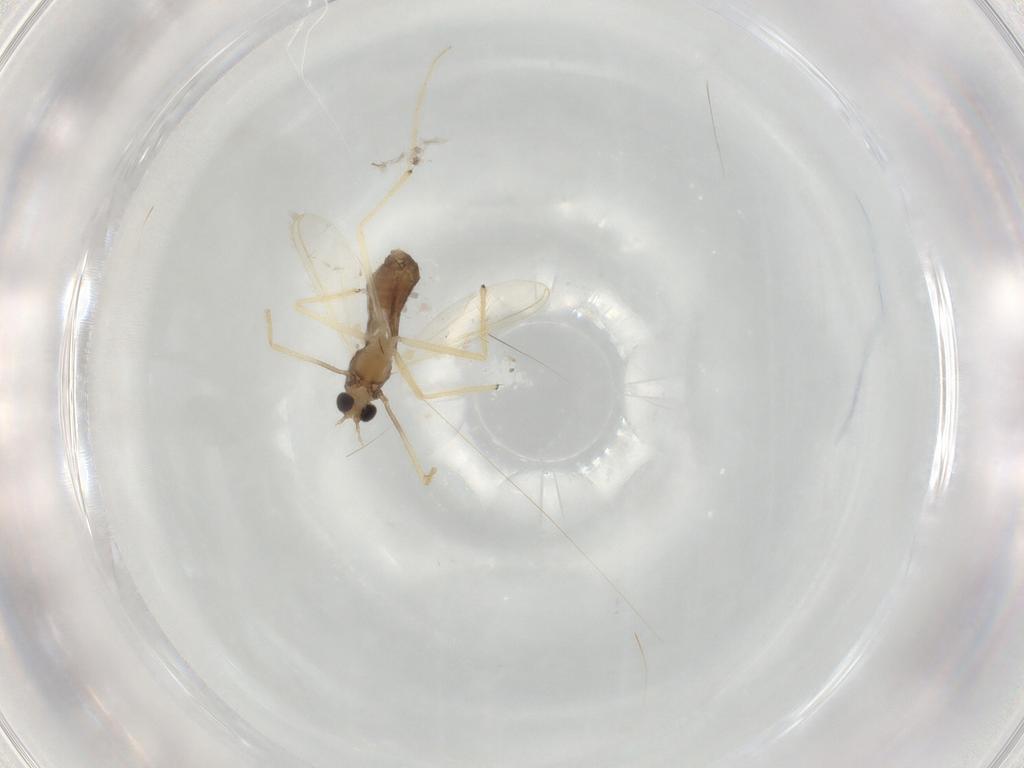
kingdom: Animalia
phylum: Arthropoda
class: Insecta
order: Diptera
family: Chironomidae
